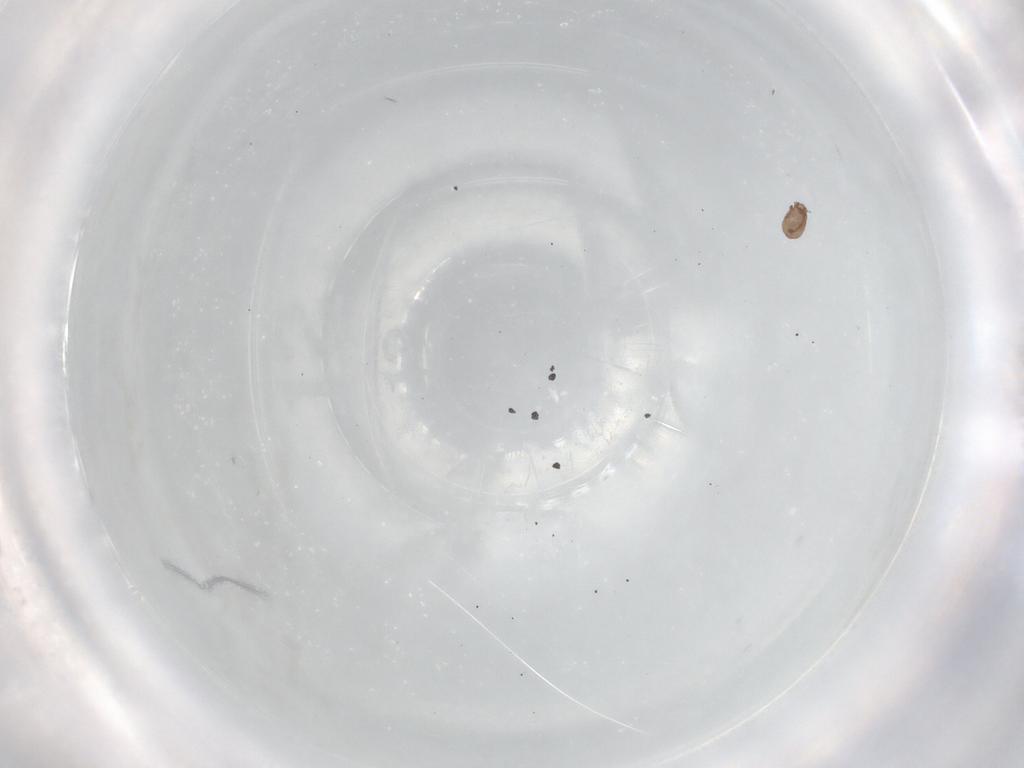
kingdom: Animalia
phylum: Arthropoda
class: Arachnida
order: Sarcoptiformes
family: Eremaeidae
